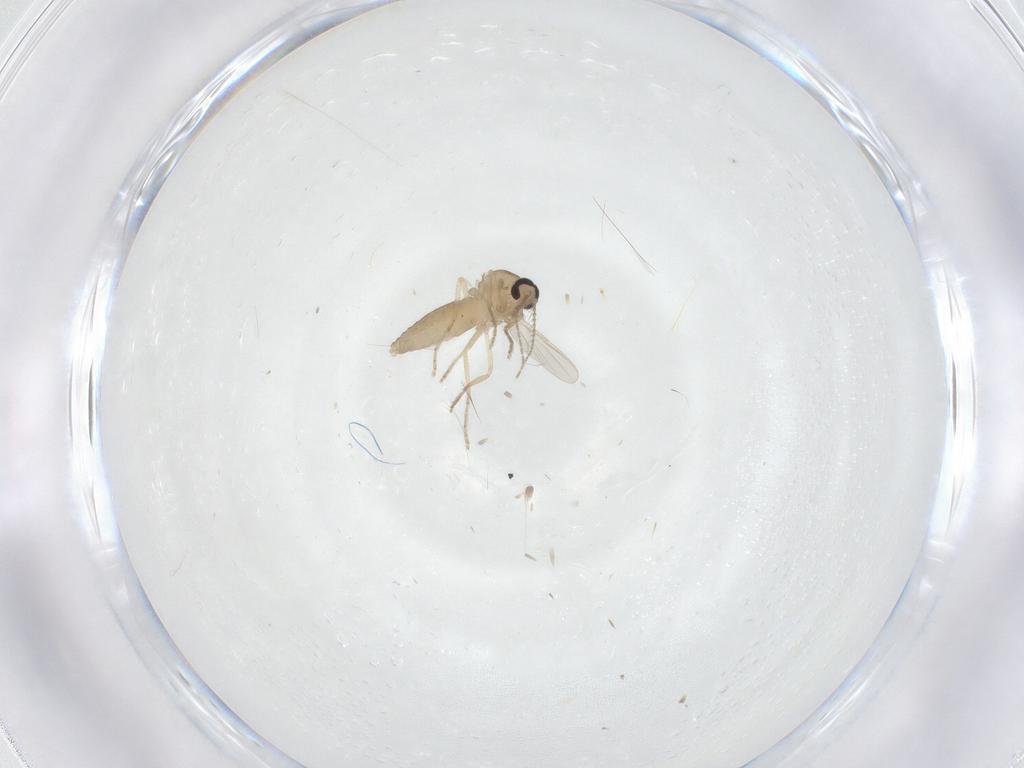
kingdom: Animalia
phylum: Arthropoda
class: Insecta
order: Diptera
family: Ceratopogonidae
